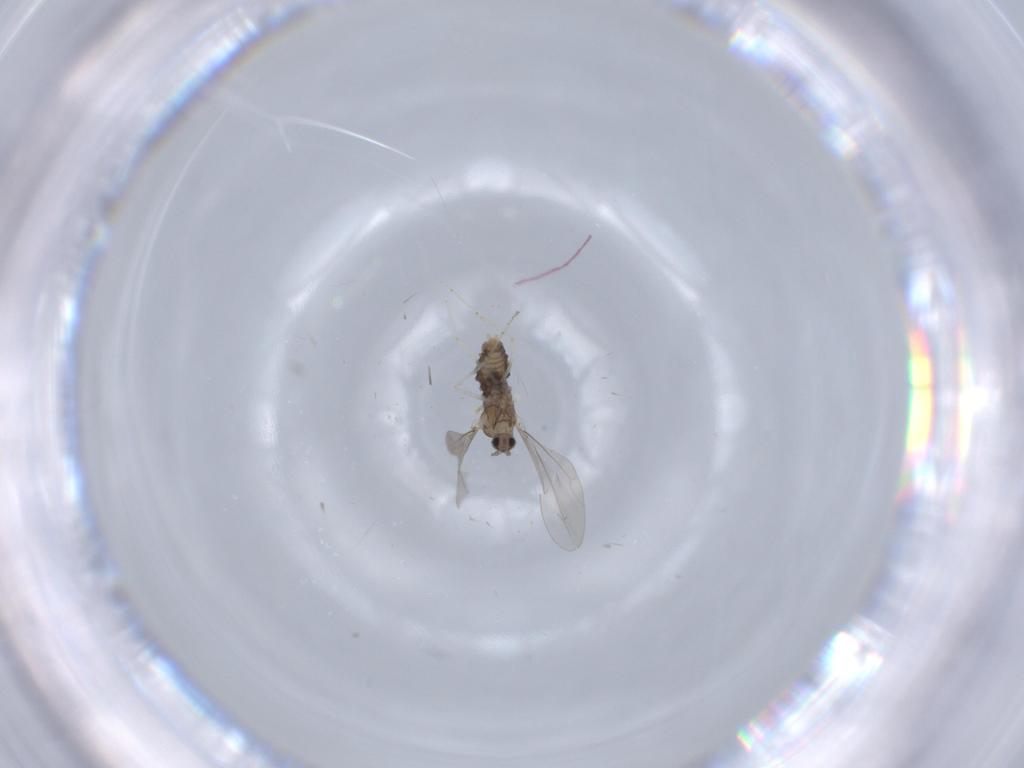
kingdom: Animalia
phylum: Arthropoda
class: Insecta
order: Diptera
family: Cecidomyiidae
